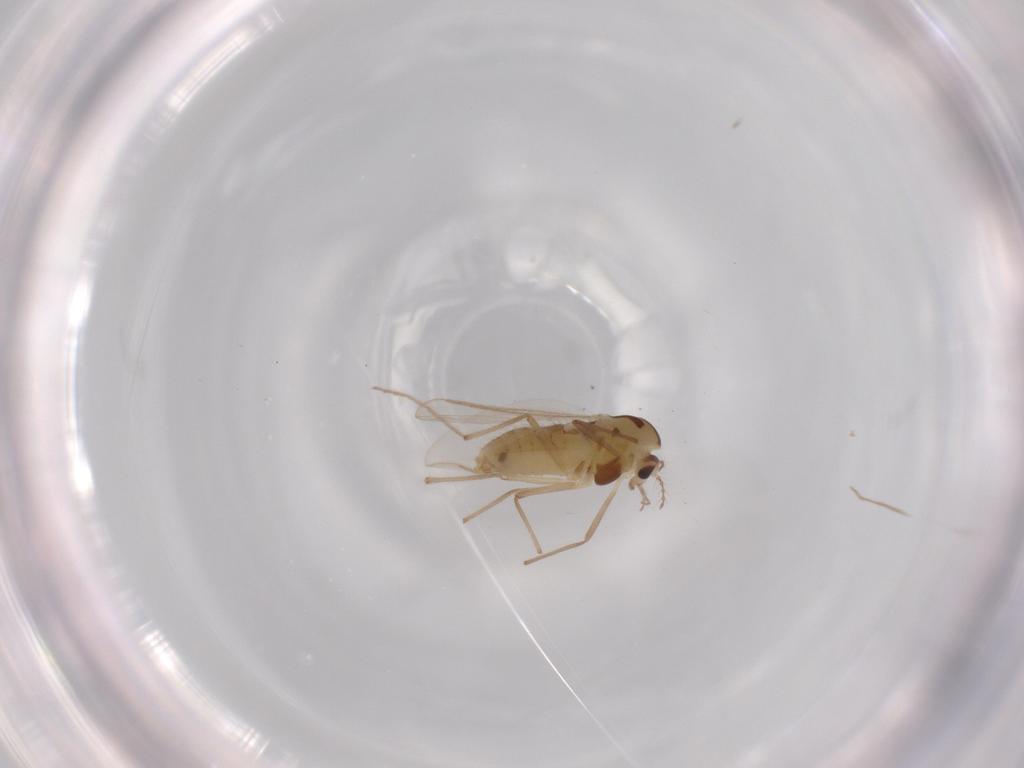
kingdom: Animalia
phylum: Arthropoda
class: Insecta
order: Diptera
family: Chironomidae
